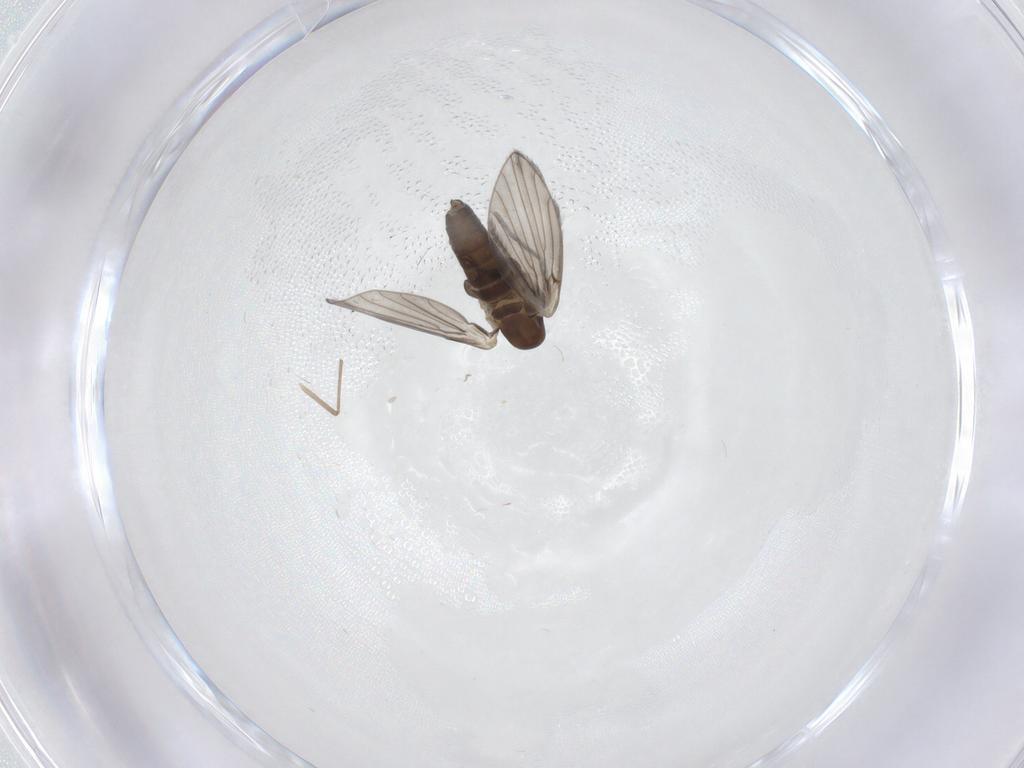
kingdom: Animalia
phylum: Arthropoda
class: Insecta
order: Diptera
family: Psychodidae
